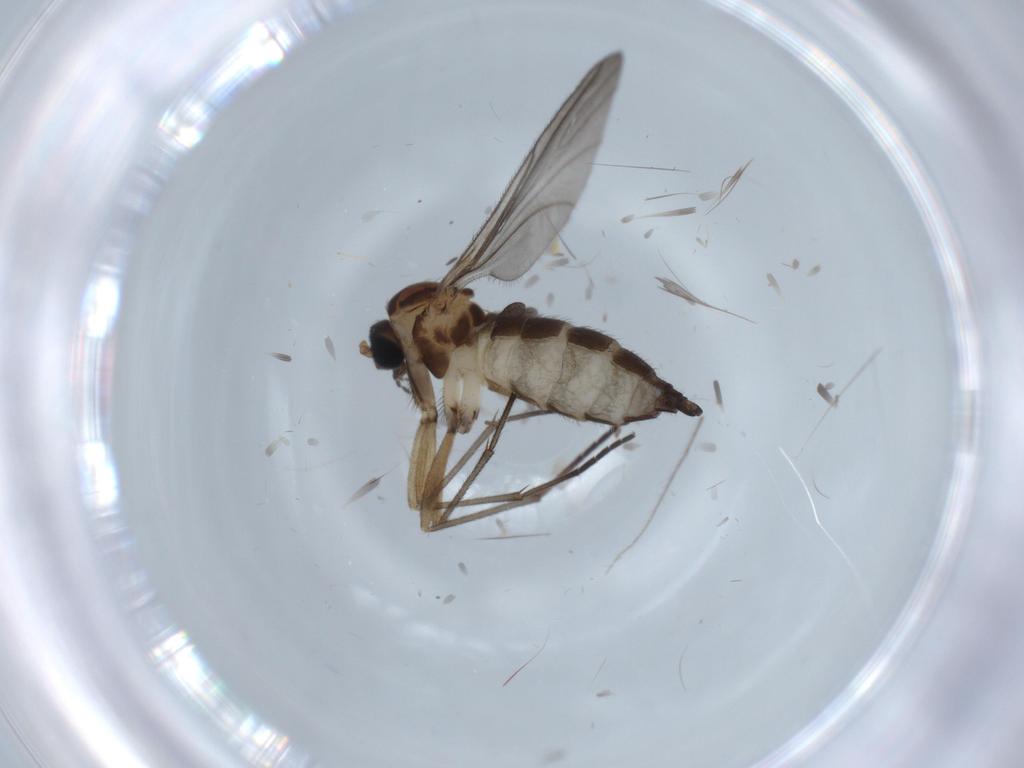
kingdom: Animalia
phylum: Arthropoda
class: Insecta
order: Diptera
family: Sciaridae
